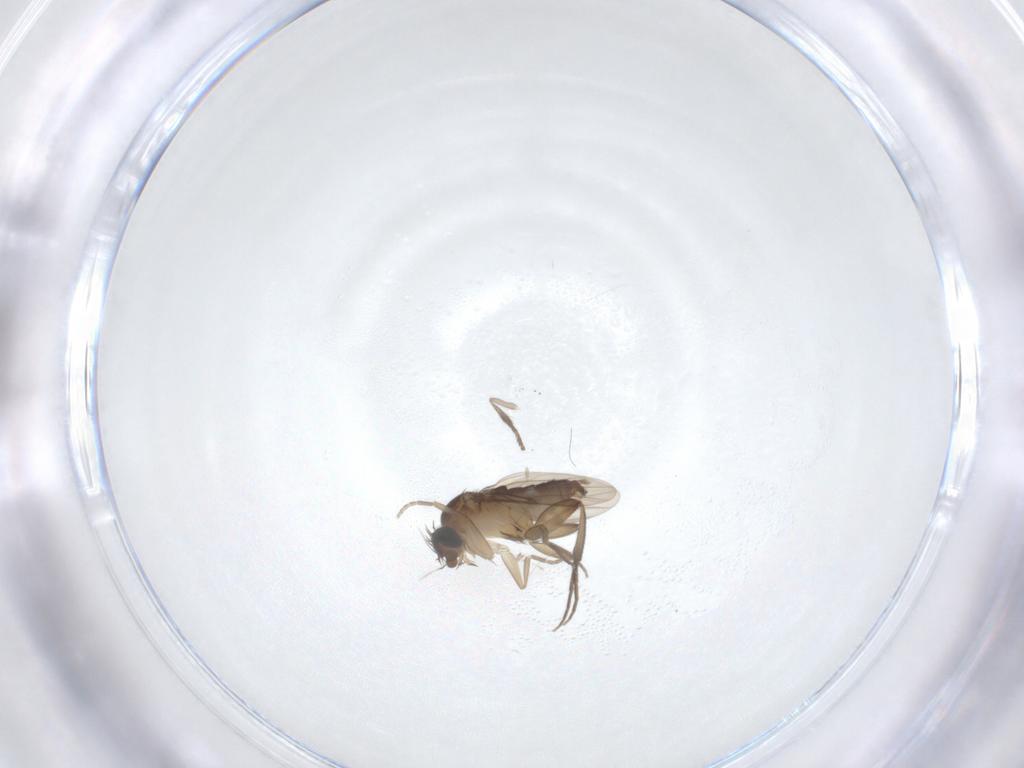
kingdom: Animalia
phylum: Arthropoda
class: Insecta
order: Diptera
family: Psychodidae
